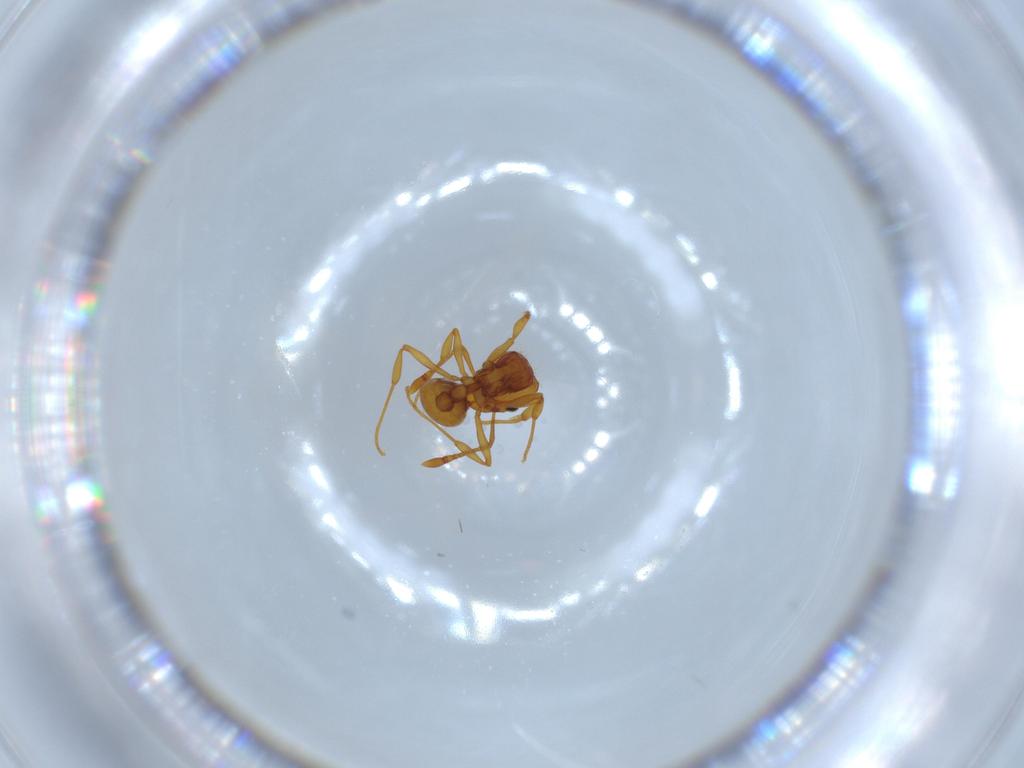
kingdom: Animalia
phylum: Arthropoda
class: Insecta
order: Hymenoptera
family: Formicidae
